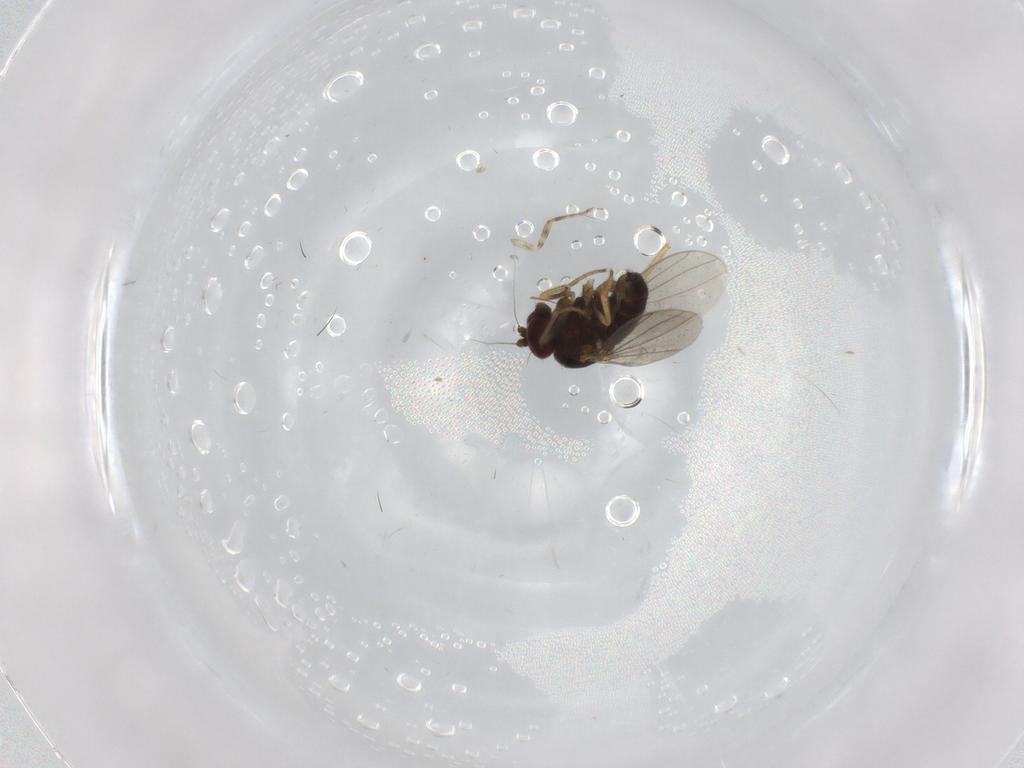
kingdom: Animalia
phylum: Arthropoda
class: Insecta
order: Diptera
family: Ceratopogonidae
